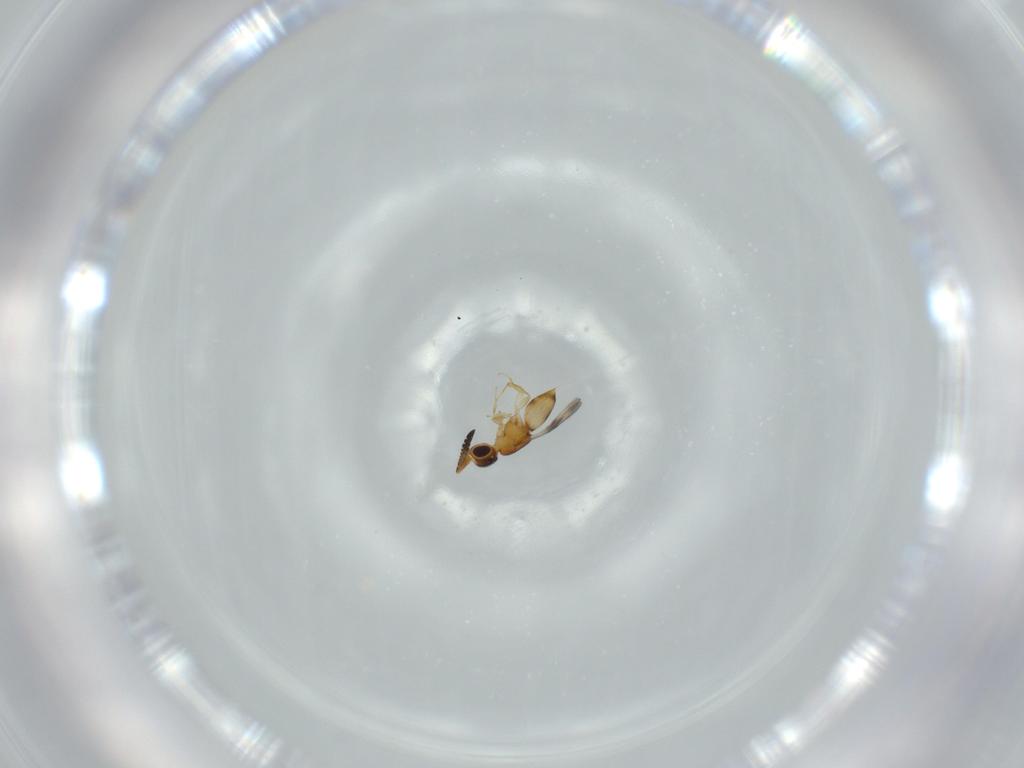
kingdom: Animalia
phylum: Arthropoda
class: Insecta
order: Hymenoptera
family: Ceraphronidae
